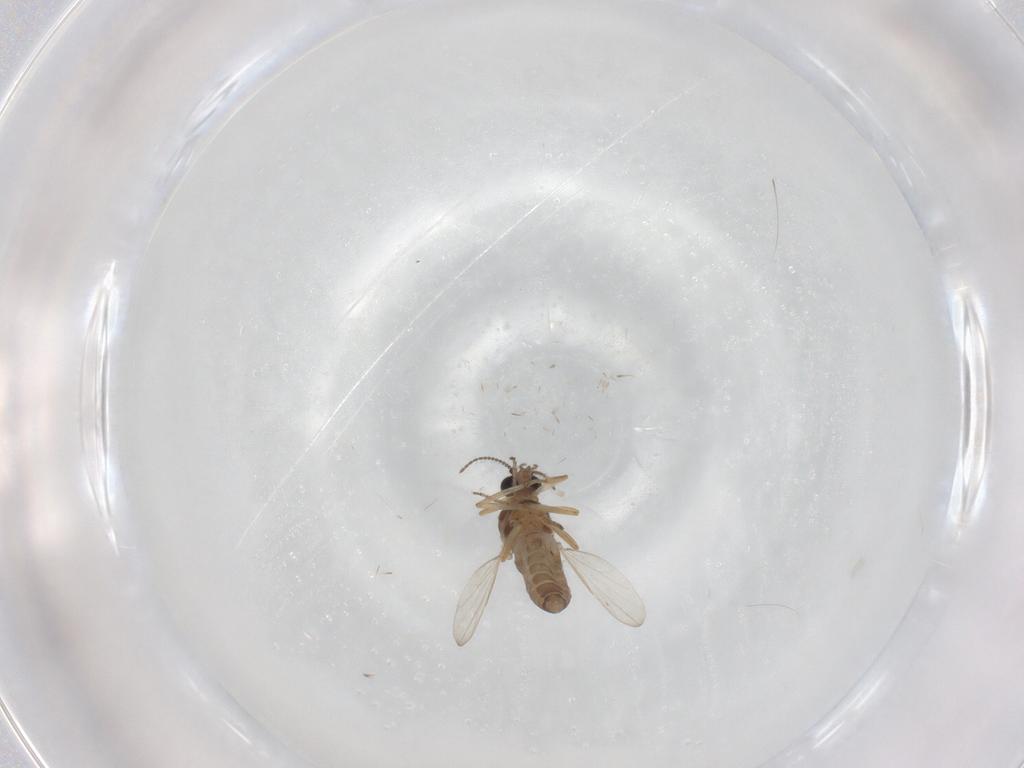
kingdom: Animalia
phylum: Arthropoda
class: Insecta
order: Diptera
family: Ceratopogonidae
